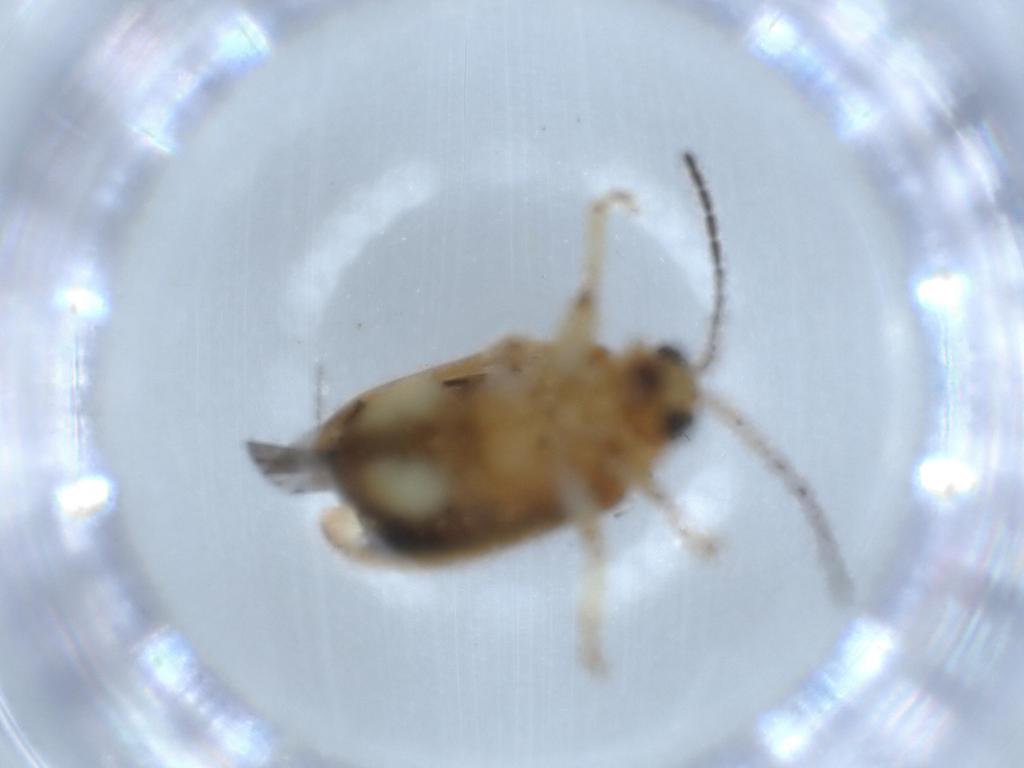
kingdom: Animalia
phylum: Arthropoda
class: Insecta
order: Coleoptera
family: Chrysomelidae
